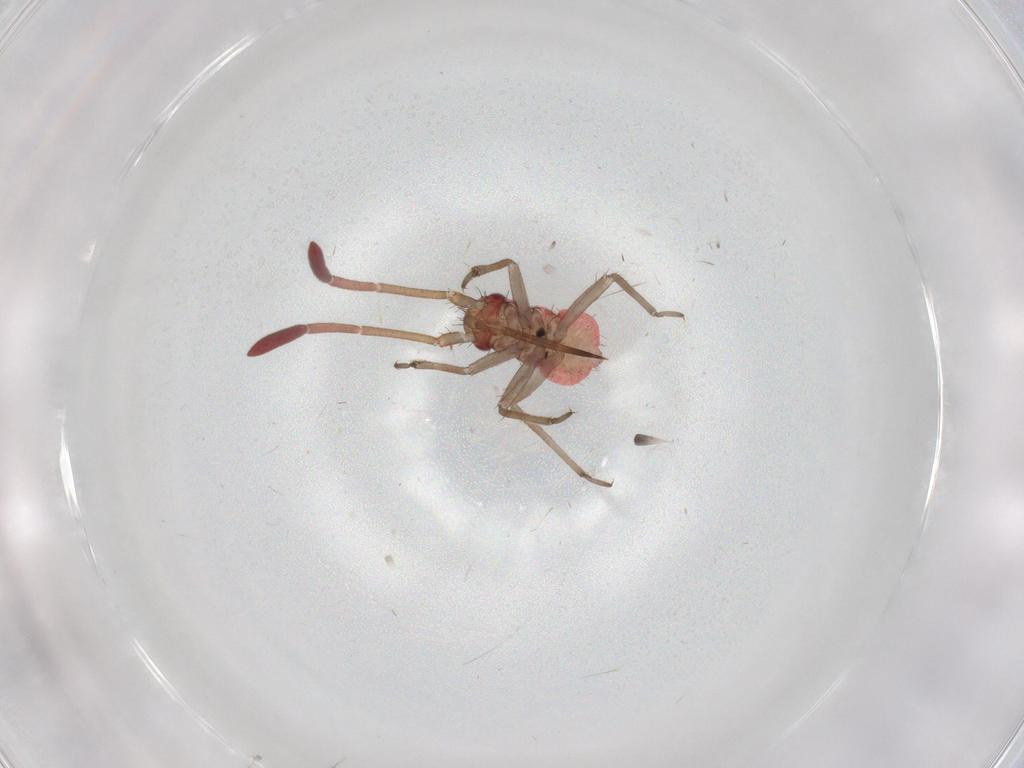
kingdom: Animalia
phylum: Arthropoda
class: Insecta
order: Hemiptera
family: Miridae
